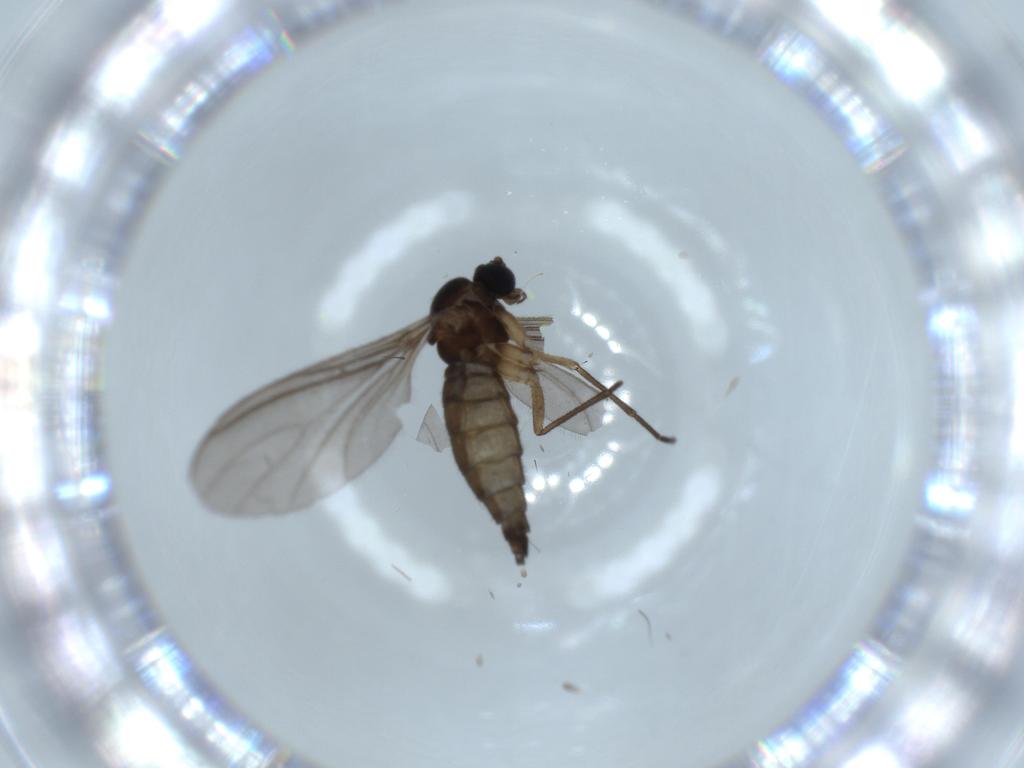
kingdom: Animalia
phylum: Arthropoda
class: Insecta
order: Diptera
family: Sciaridae
